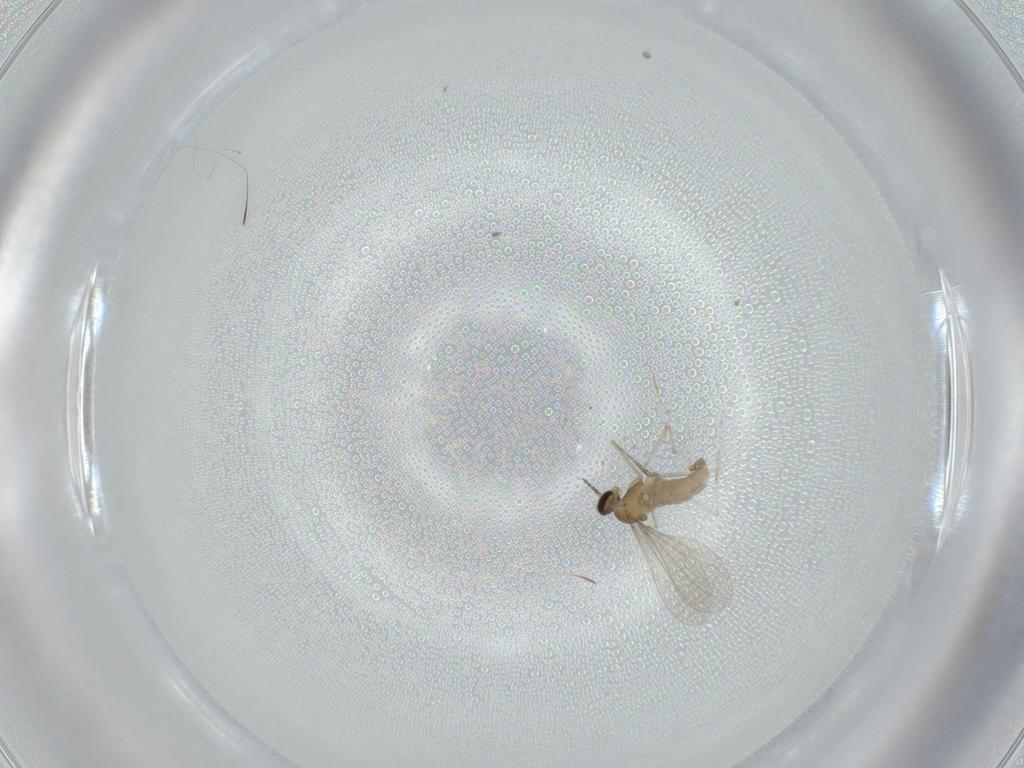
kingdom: Animalia
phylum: Arthropoda
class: Insecta
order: Diptera
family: Cecidomyiidae
